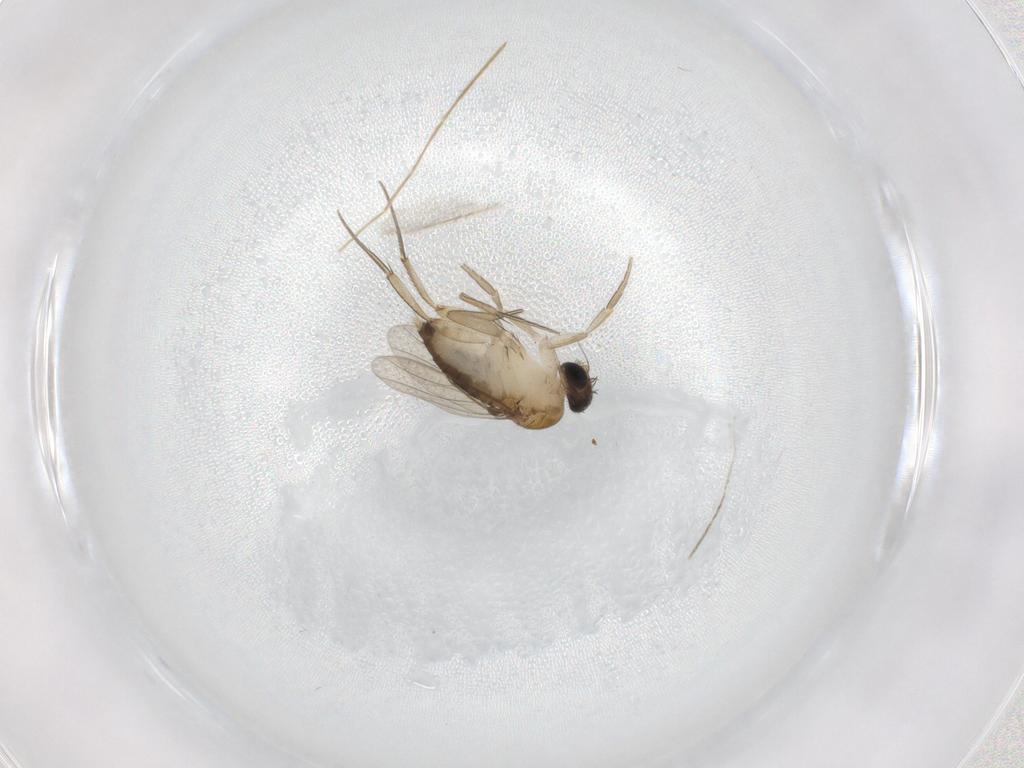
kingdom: Animalia
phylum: Arthropoda
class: Insecta
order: Diptera
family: Chironomidae
